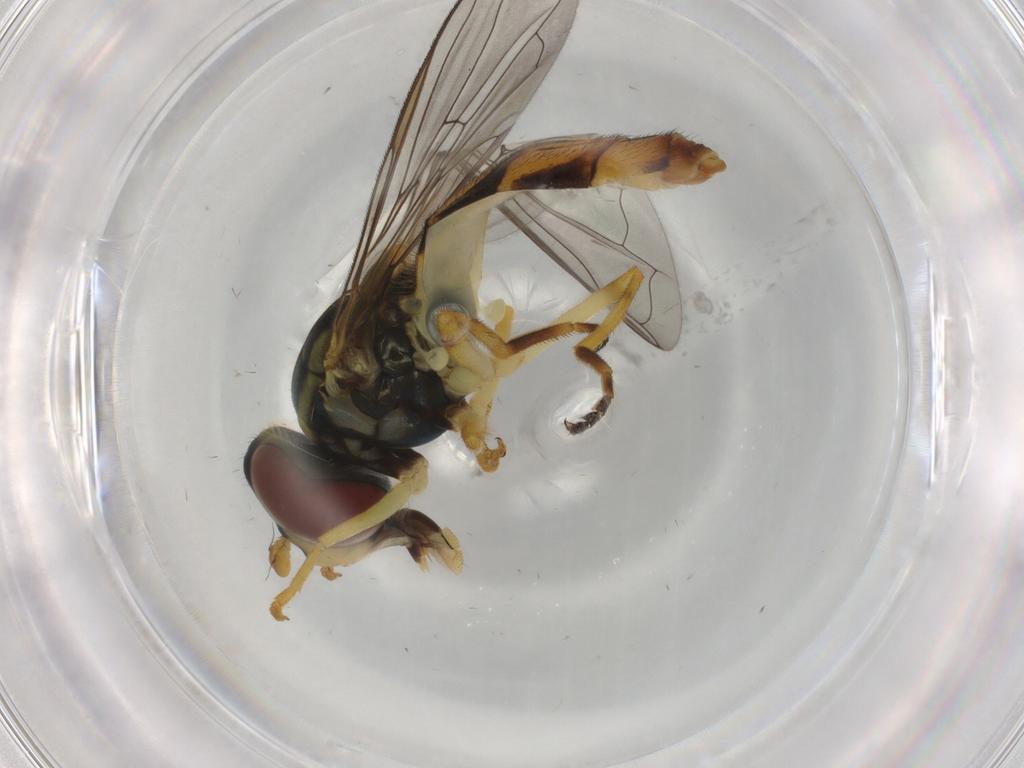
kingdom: Animalia
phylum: Arthropoda
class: Insecta
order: Diptera
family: Syrphidae
